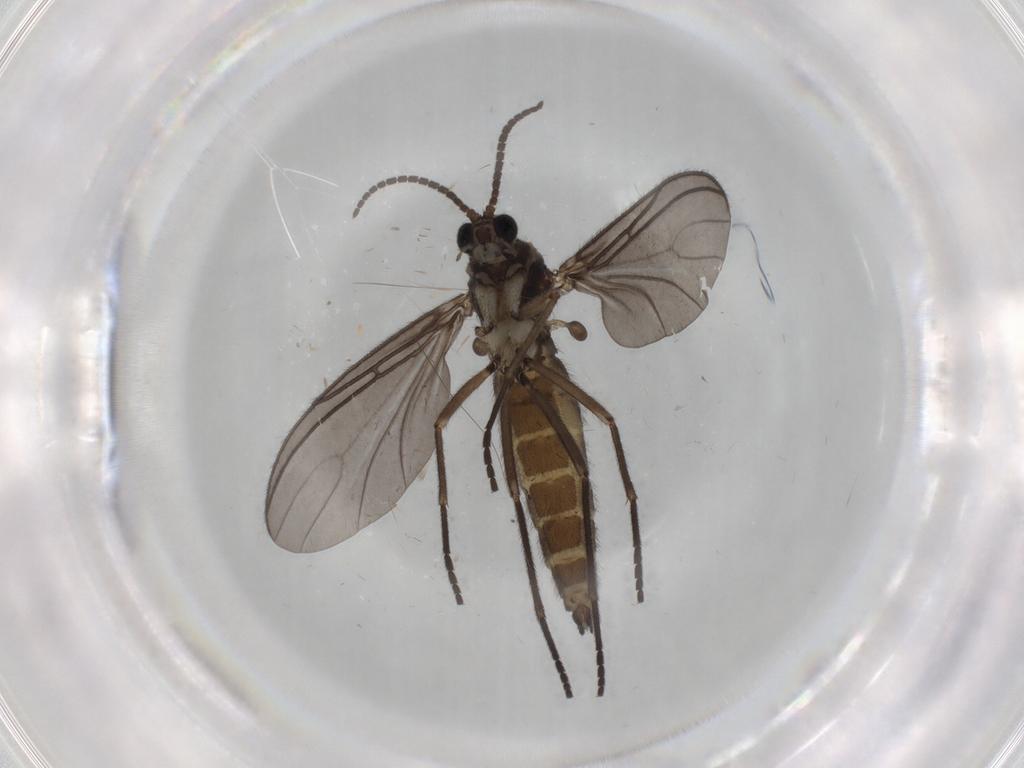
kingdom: Animalia
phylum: Arthropoda
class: Insecta
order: Diptera
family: Sciaridae
